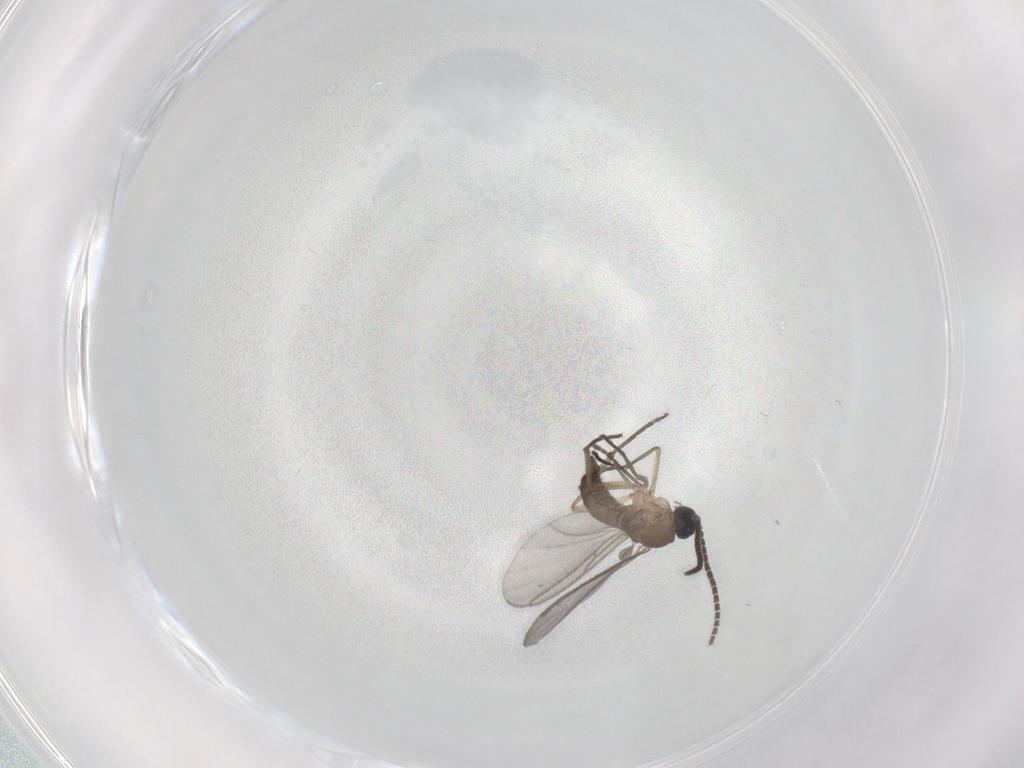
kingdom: Animalia
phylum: Arthropoda
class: Insecta
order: Diptera
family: Sciaridae
